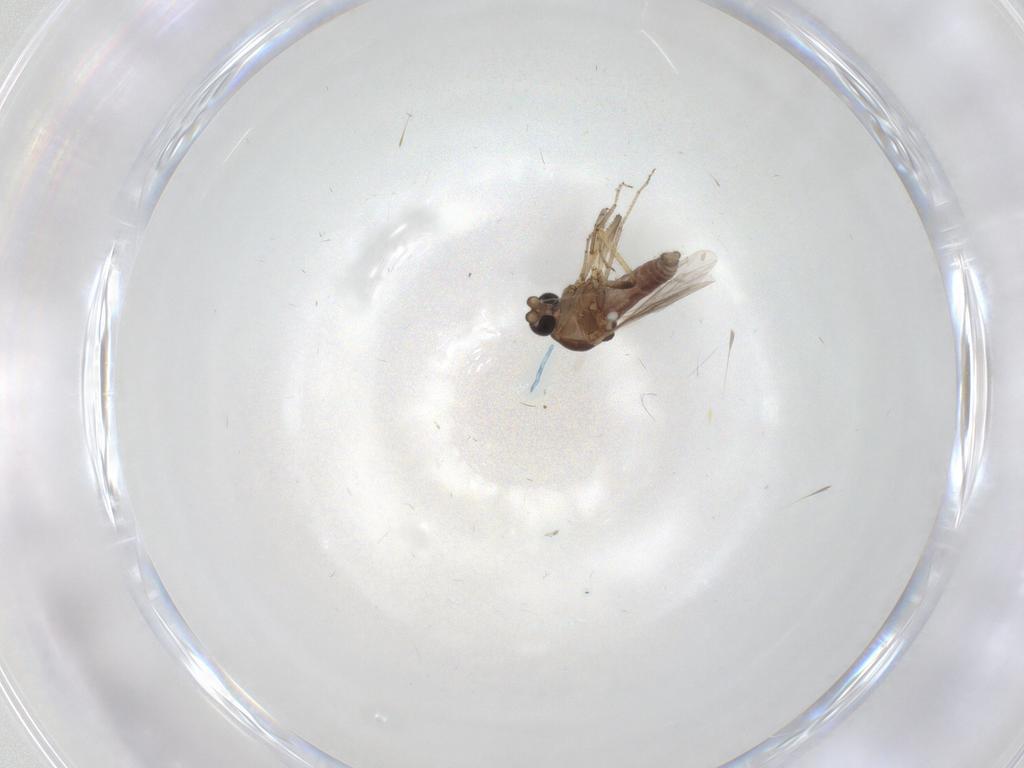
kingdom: Animalia
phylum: Arthropoda
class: Insecta
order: Diptera
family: Ceratopogonidae
